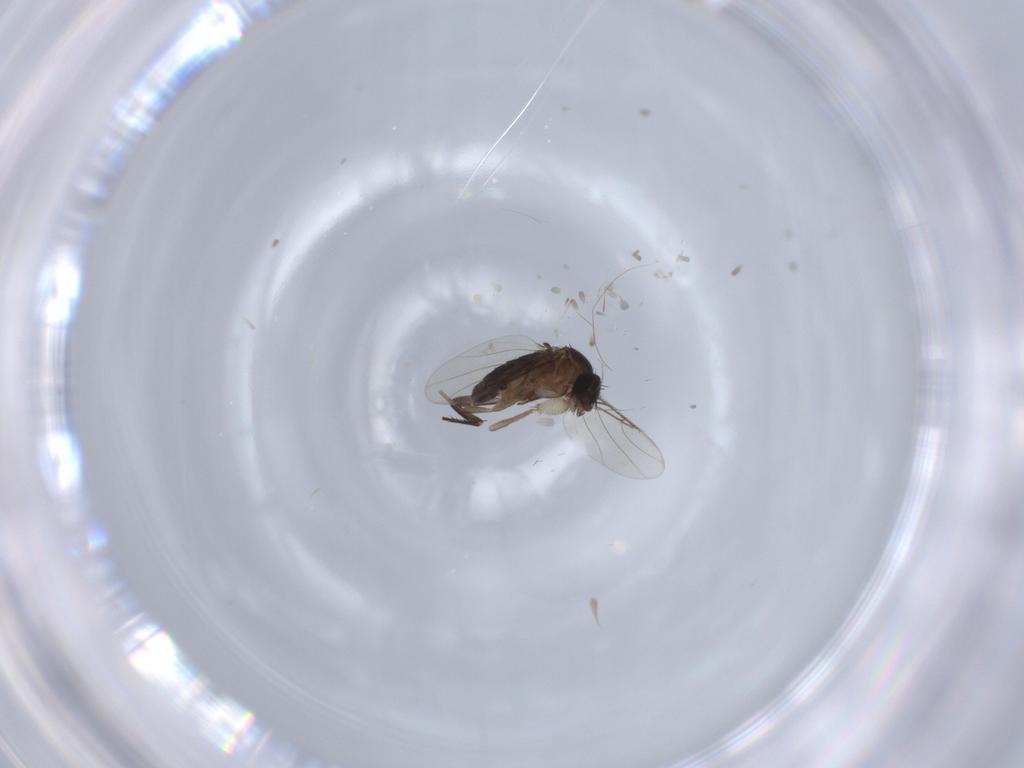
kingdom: Animalia
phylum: Arthropoda
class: Insecta
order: Diptera
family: Phoridae
